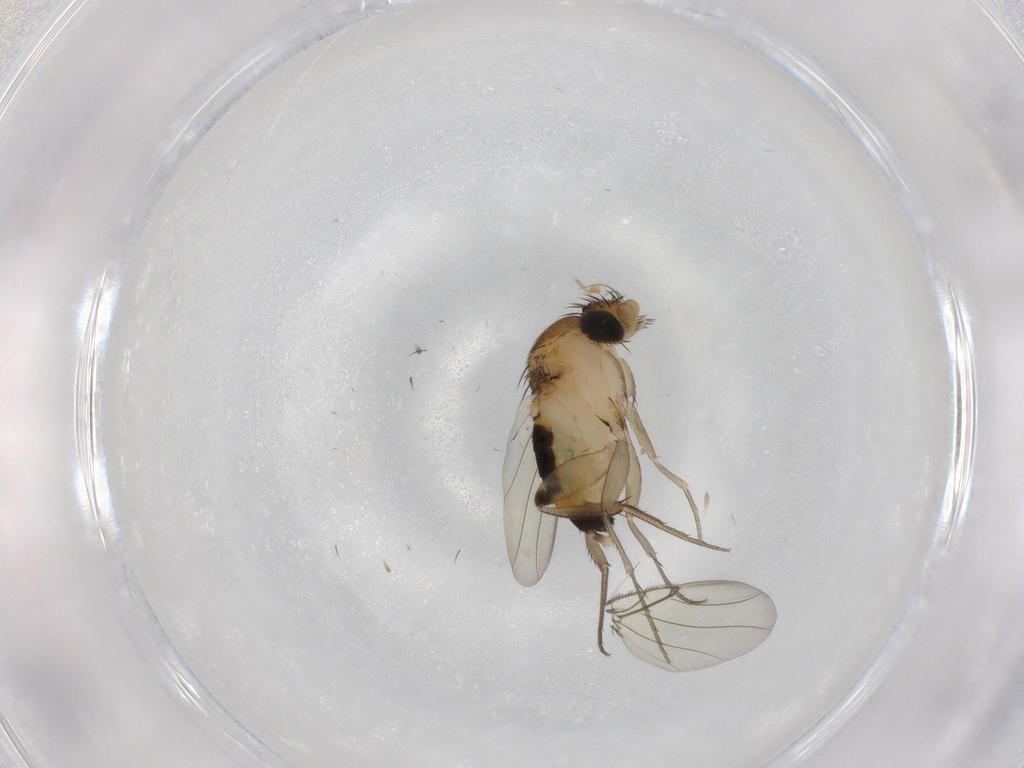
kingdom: Animalia
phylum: Arthropoda
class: Insecta
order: Diptera
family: Phoridae
